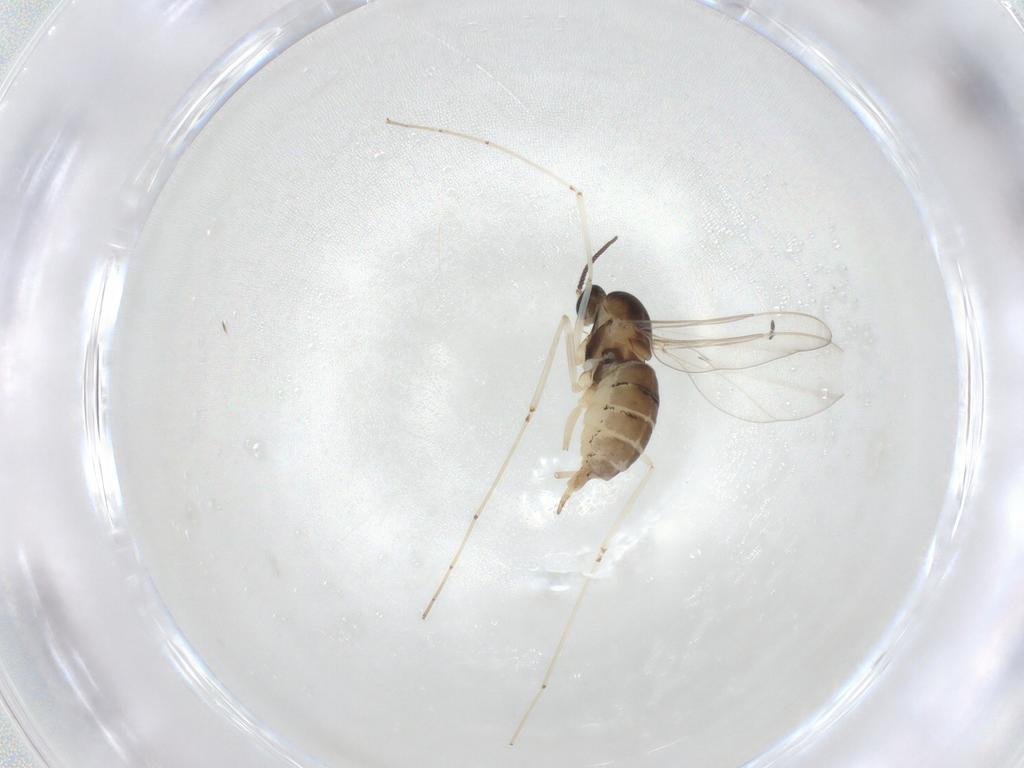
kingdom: Animalia
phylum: Arthropoda
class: Insecta
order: Diptera
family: Cecidomyiidae
